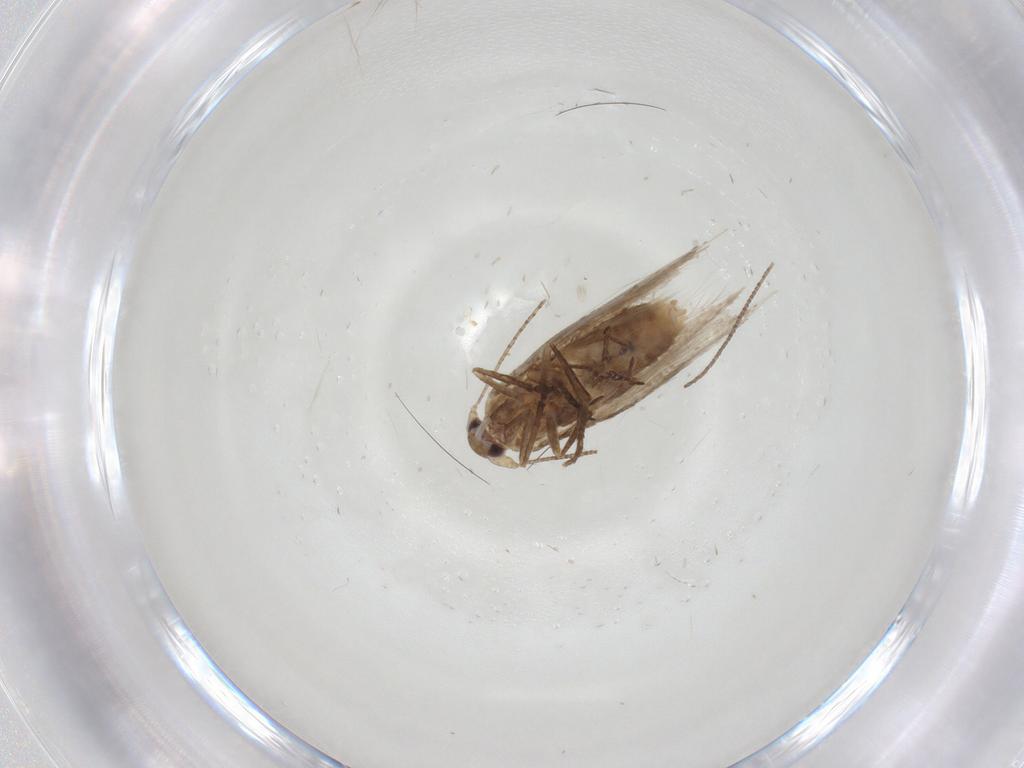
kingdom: Animalia
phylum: Arthropoda
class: Insecta
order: Lepidoptera
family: Bucculatricidae
